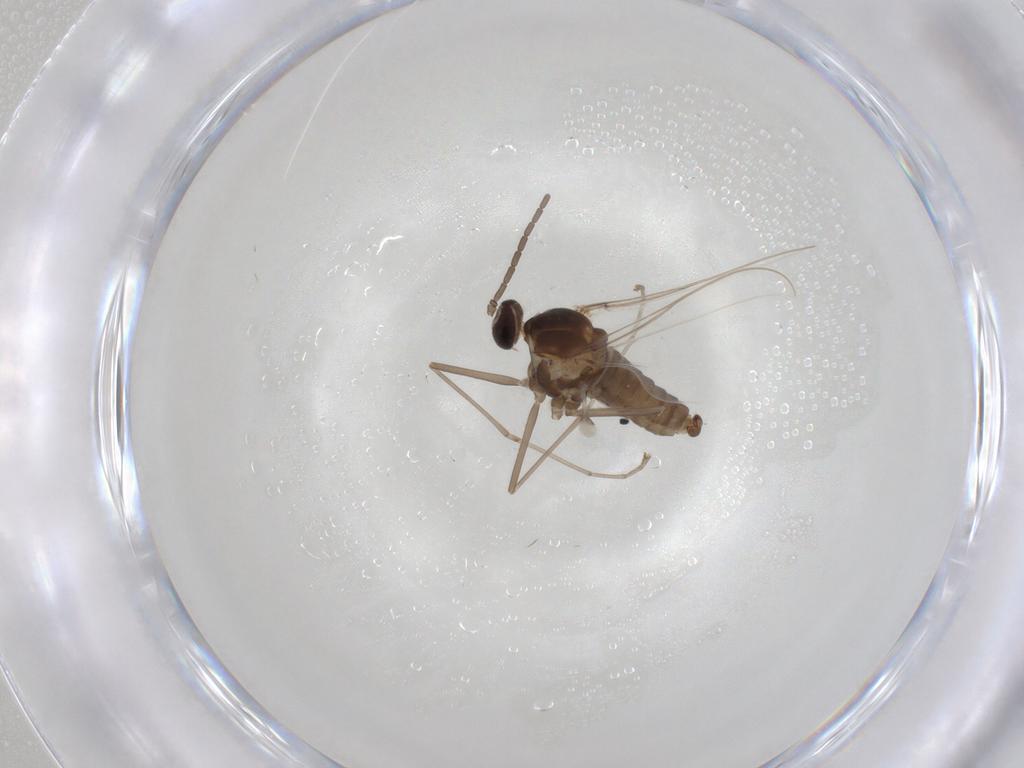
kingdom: Animalia
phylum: Arthropoda
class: Insecta
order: Diptera
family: Cecidomyiidae
